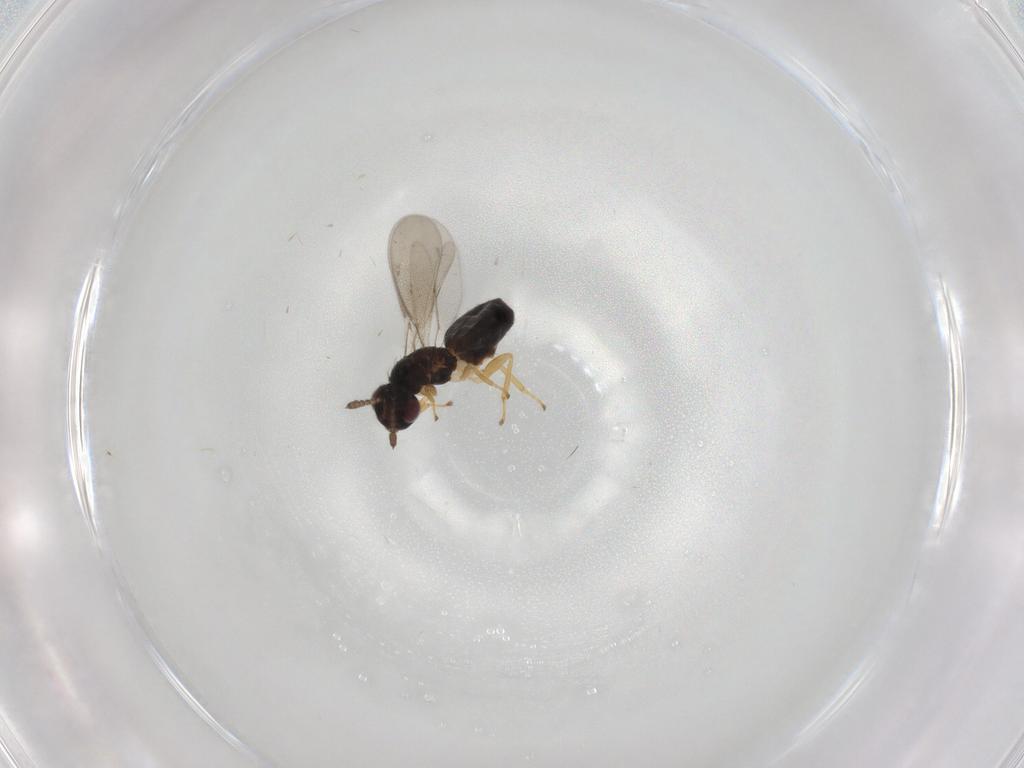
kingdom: Animalia
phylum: Arthropoda
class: Insecta
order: Hymenoptera
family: Eulophidae
